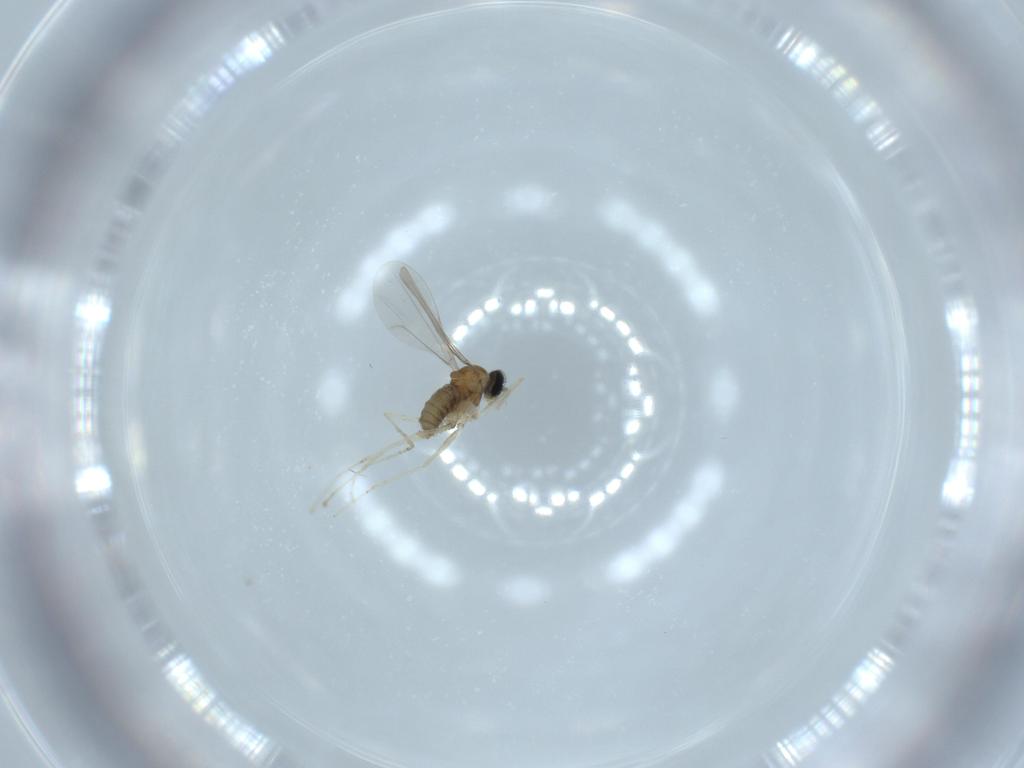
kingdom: Animalia
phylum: Arthropoda
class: Insecta
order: Diptera
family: Cecidomyiidae
